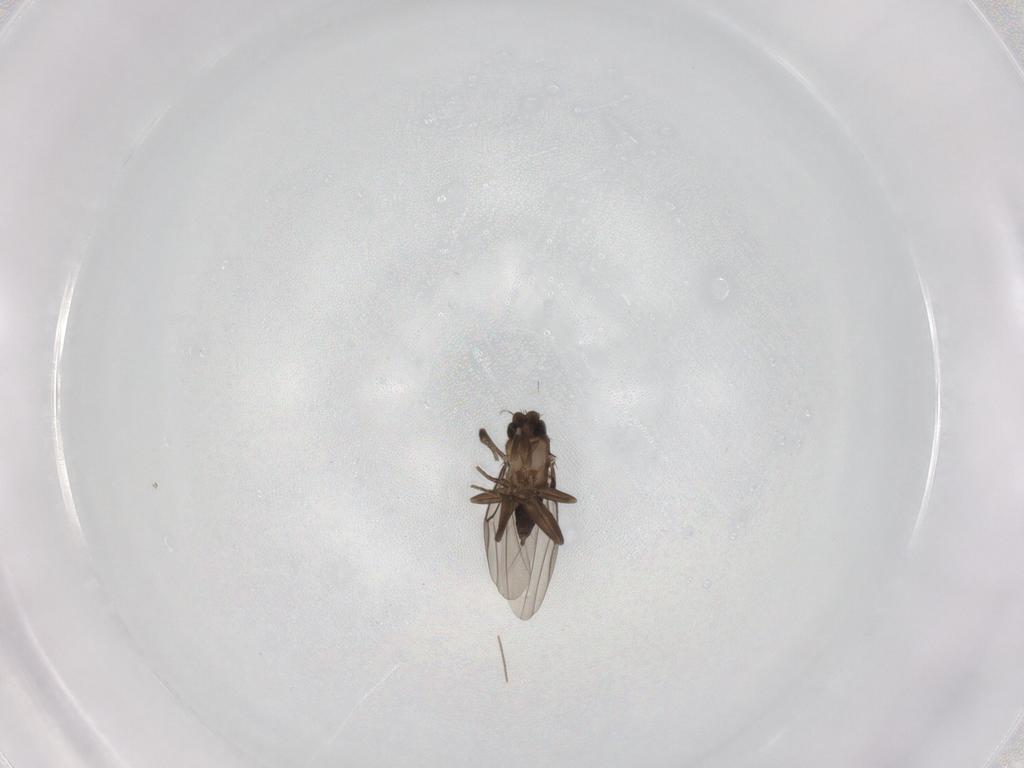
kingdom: Animalia
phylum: Arthropoda
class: Insecta
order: Diptera
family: Phoridae
